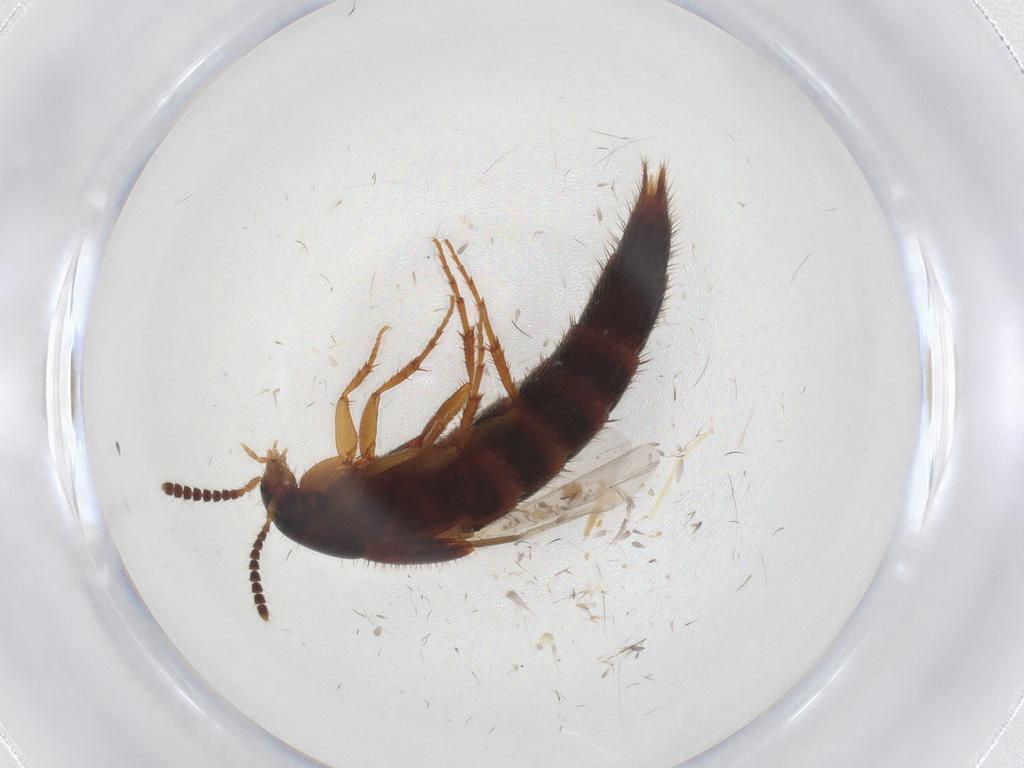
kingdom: Animalia
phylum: Arthropoda
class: Insecta
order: Coleoptera
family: Staphylinidae
